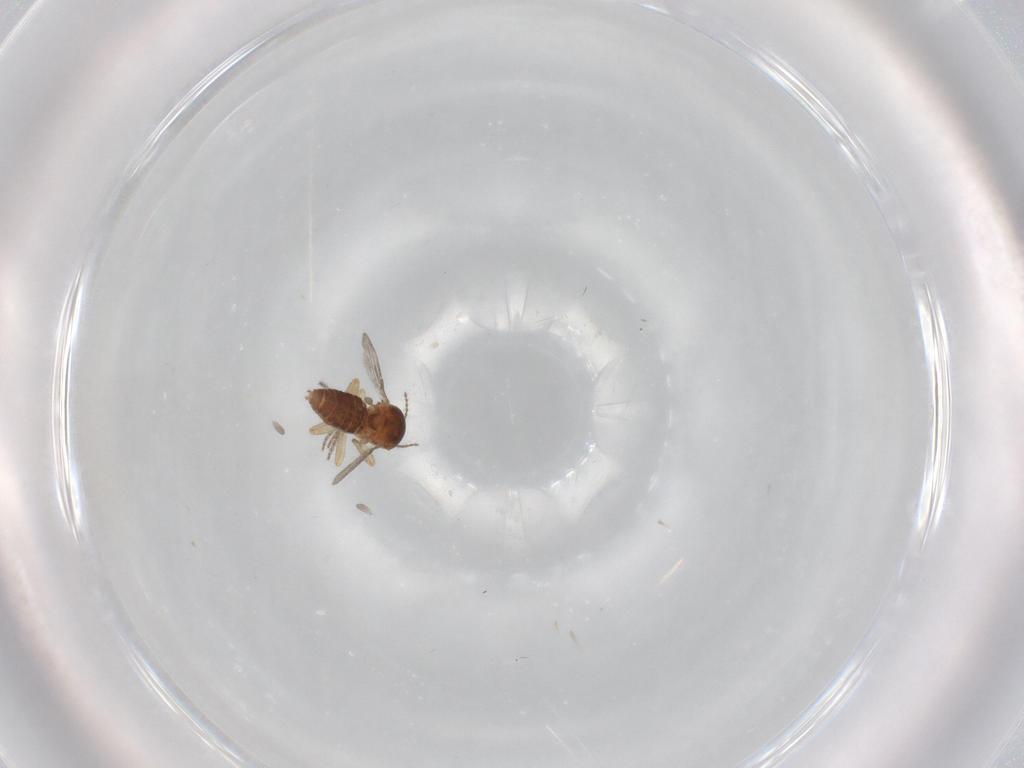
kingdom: Animalia
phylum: Arthropoda
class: Insecta
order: Diptera
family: Ceratopogonidae
